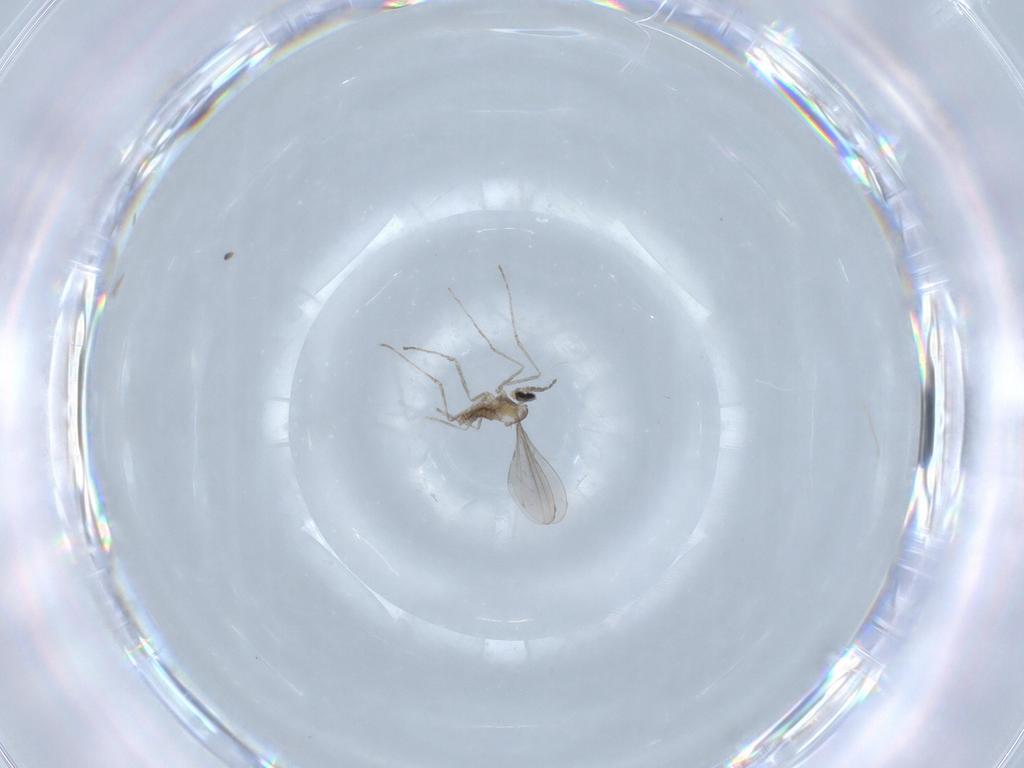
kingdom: Animalia
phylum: Arthropoda
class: Insecta
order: Diptera
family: Cecidomyiidae
